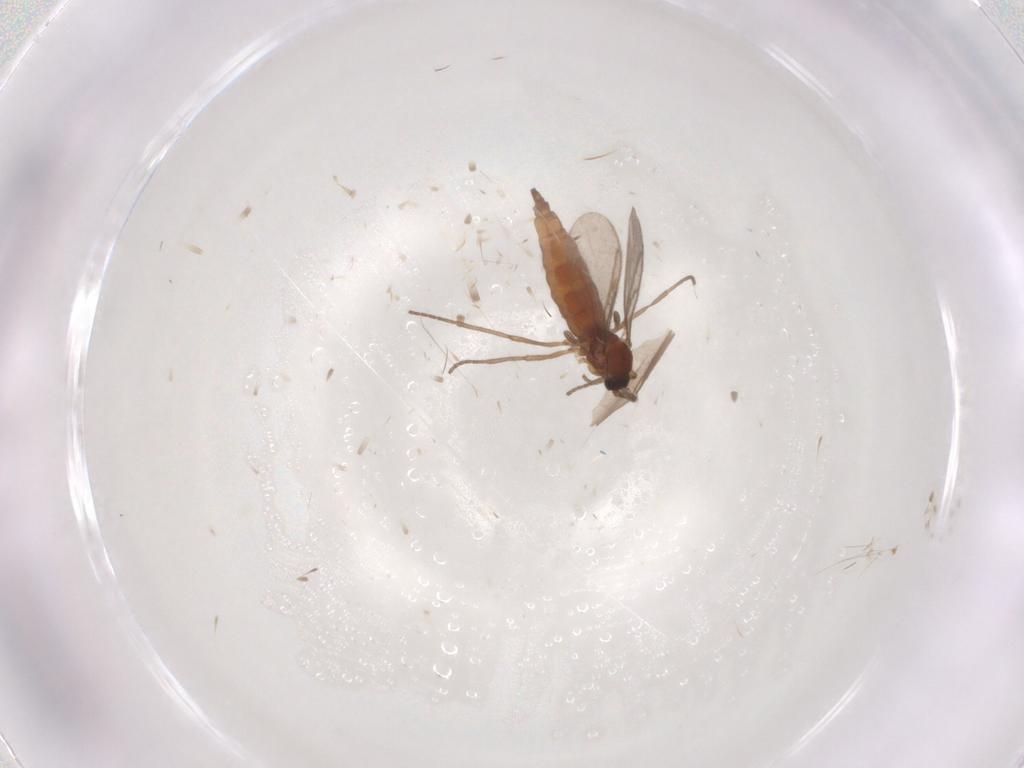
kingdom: Animalia
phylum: Arthropoda
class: Insecta
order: Diptera
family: Sciaridae
